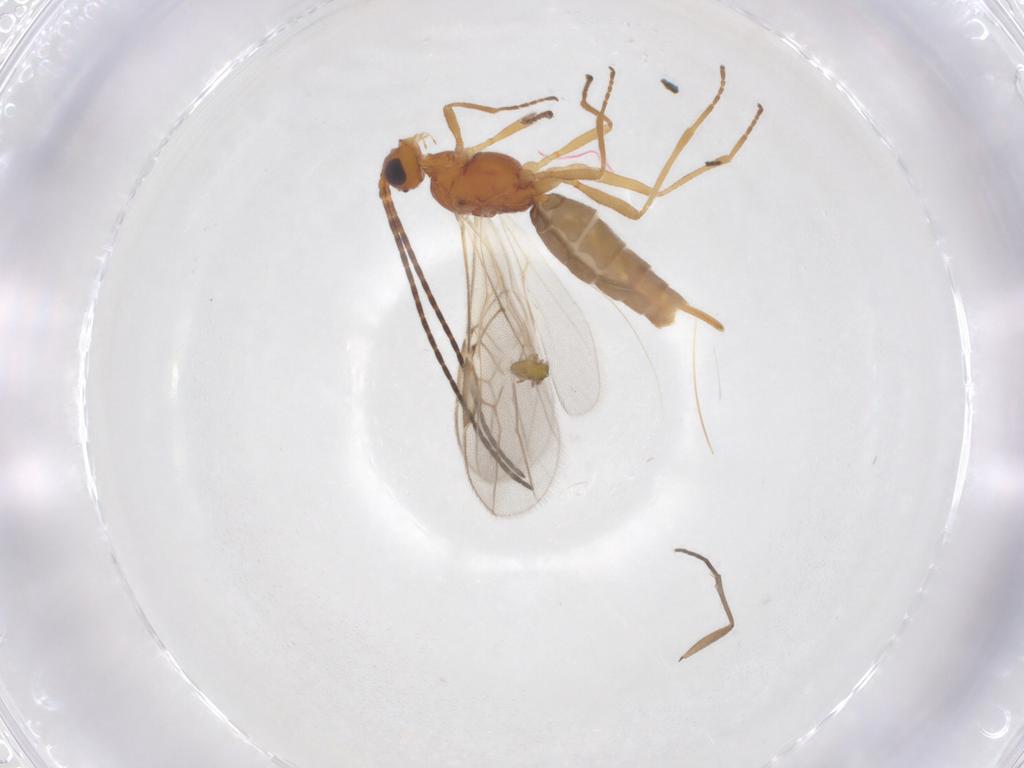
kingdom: Animalia
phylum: Arthropoda
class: Insecta
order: Hymenoptera
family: Braconidae
